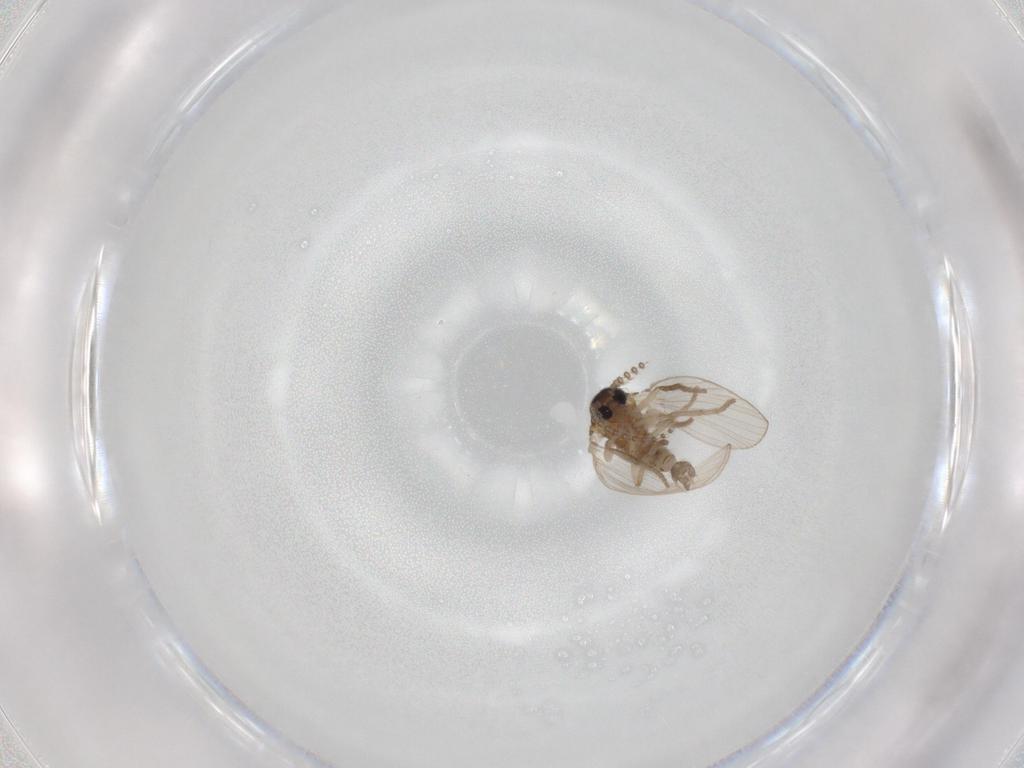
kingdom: Animalia
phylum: Arthropoda
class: Insecta
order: Diptera
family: Psychodidae
